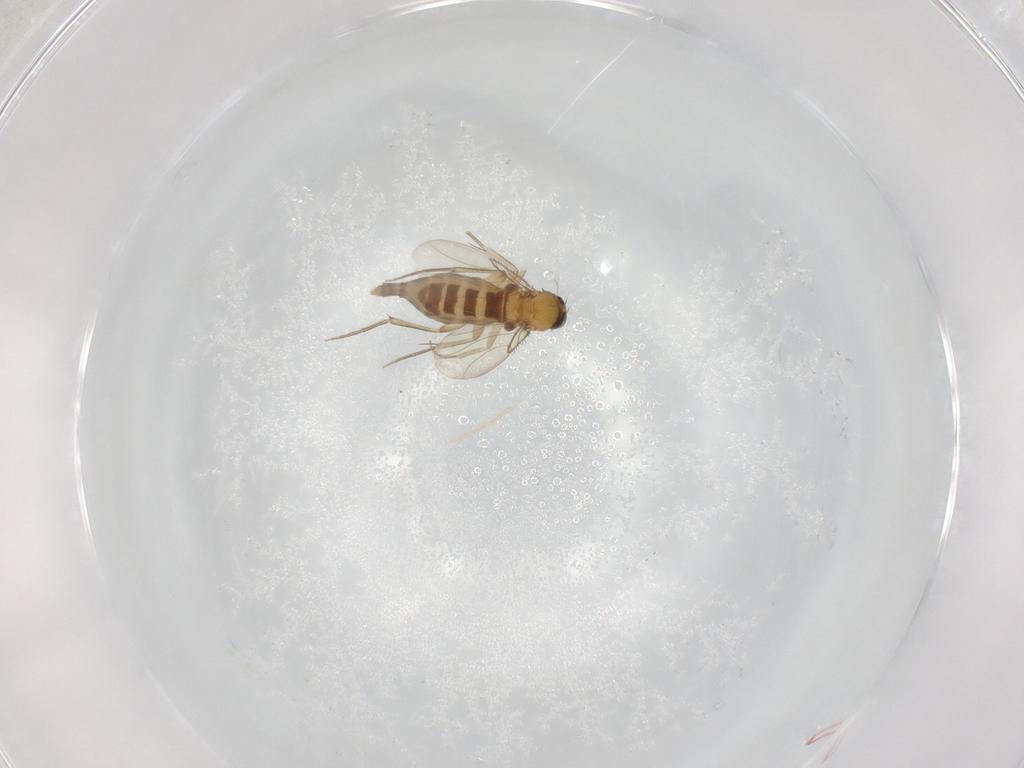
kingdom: Animalia
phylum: Arthropoda
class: Insecta
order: Diptera
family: Phoridae
